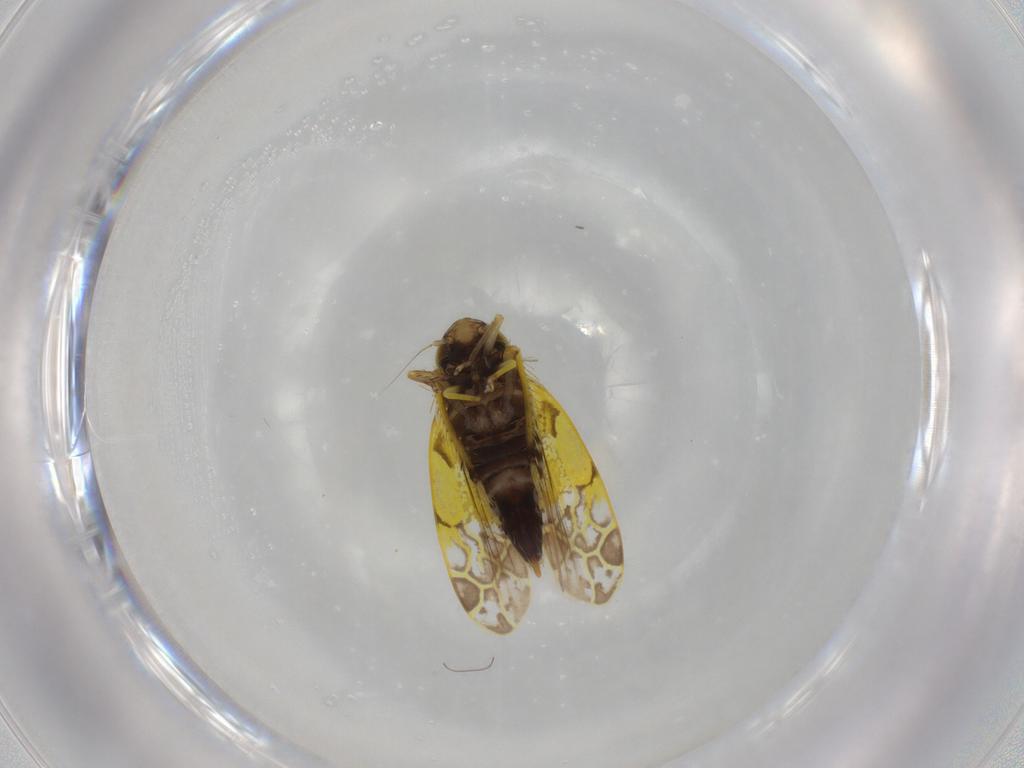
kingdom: Animalia
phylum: Arthropoda
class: Insecta
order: Hemiptera
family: Cicadellidae
